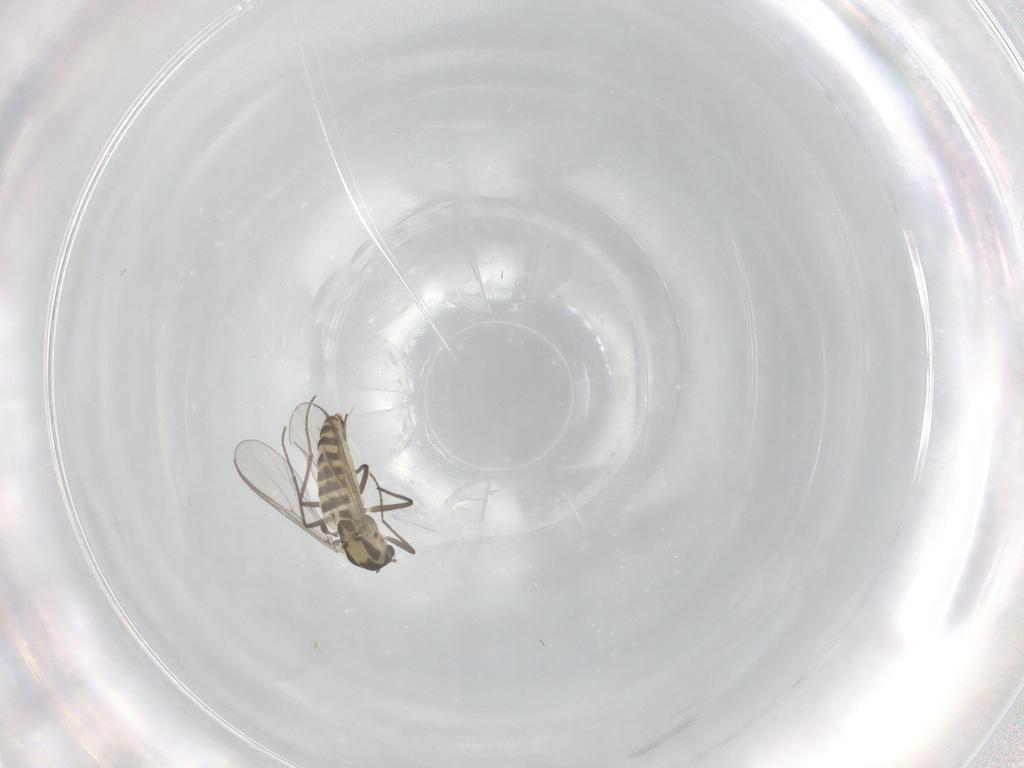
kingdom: Animalia
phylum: Arthropoda
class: Insecta
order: Diptera
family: Chironomidae
